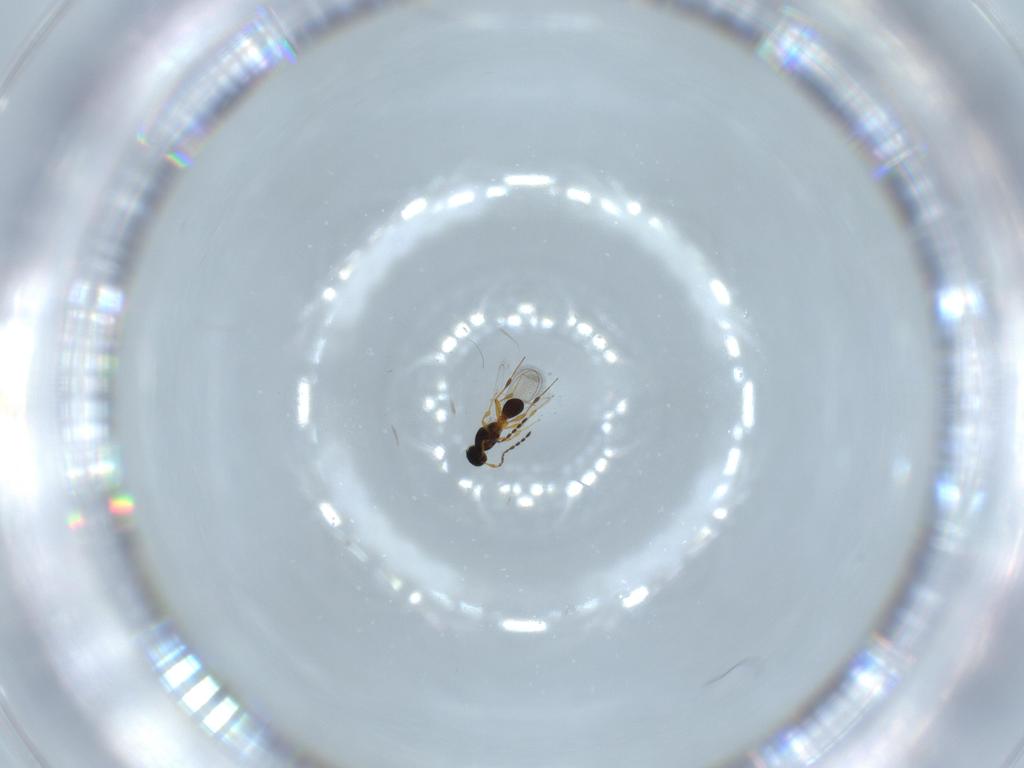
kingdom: Animalia
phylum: Arthropoda
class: Insecta
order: Hymenoptera
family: Platygastridae
